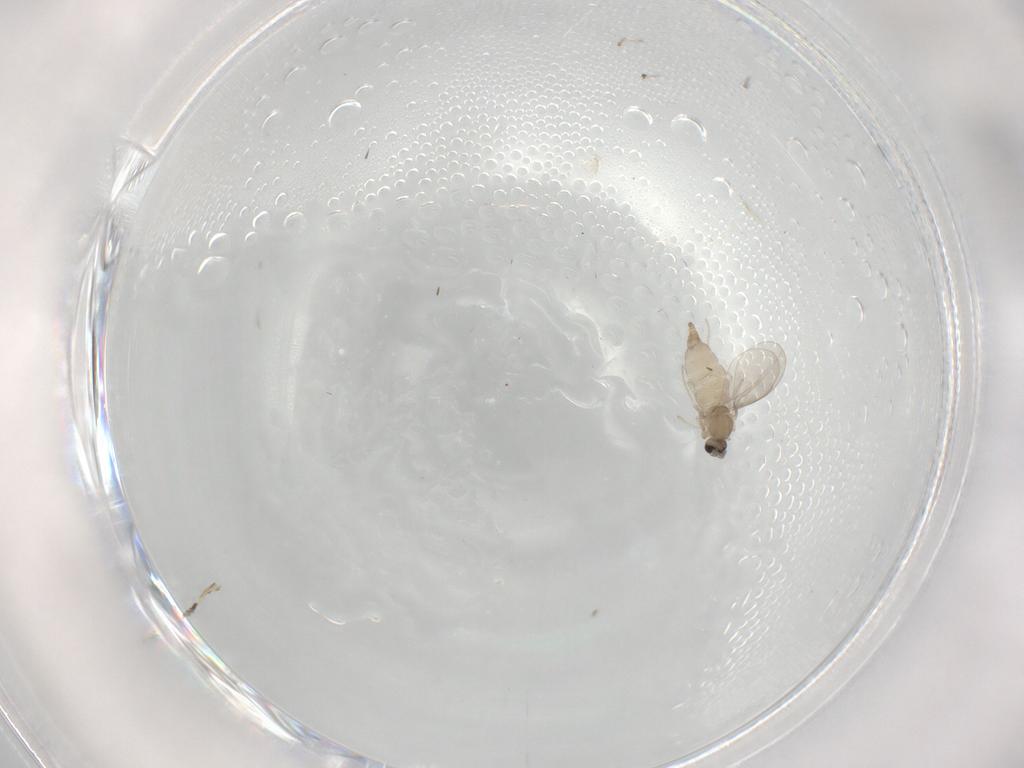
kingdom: Animalia
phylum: Arthropoda
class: Insecta
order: Diptera
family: Cecidomyiidae
